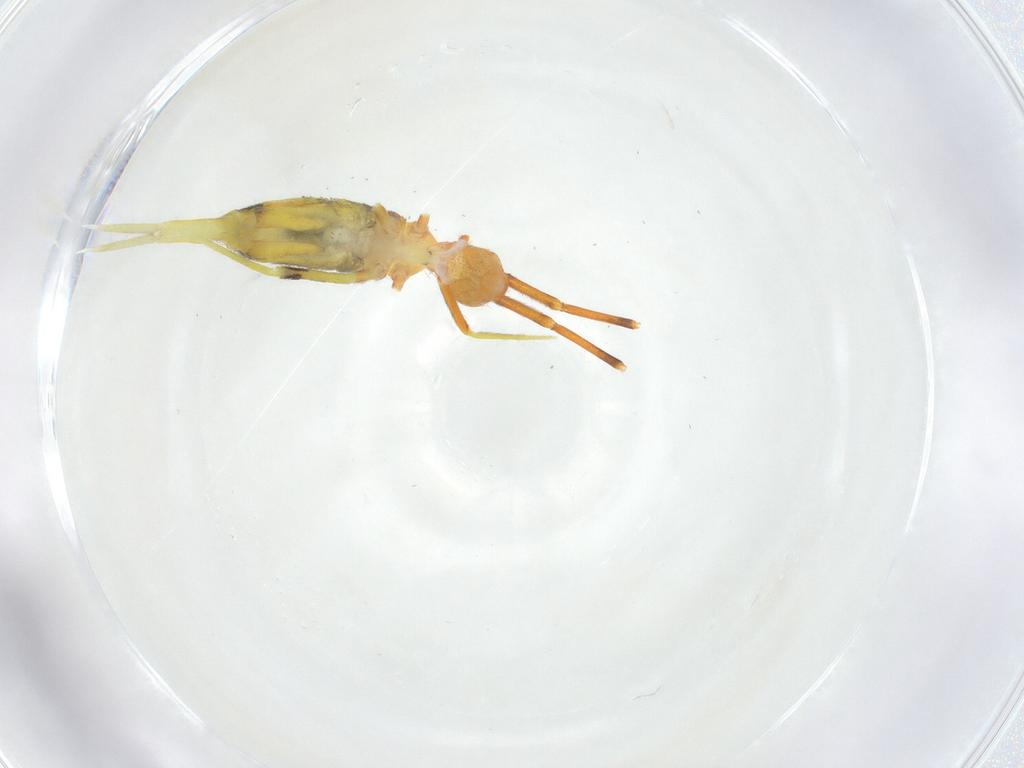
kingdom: Animalia
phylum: Arthropoda
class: Collembola
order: Entomobryomorpha
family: Entomobryidae
